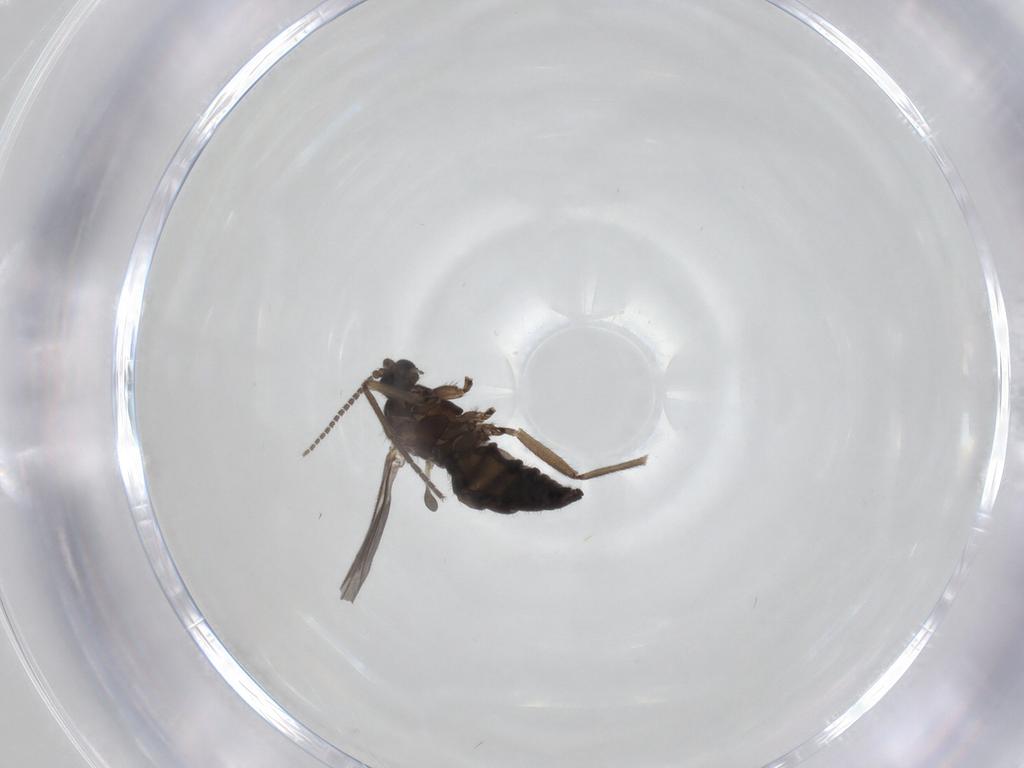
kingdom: Animalia
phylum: Arthropoda
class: Insecta
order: Diptera
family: Sciaridae
